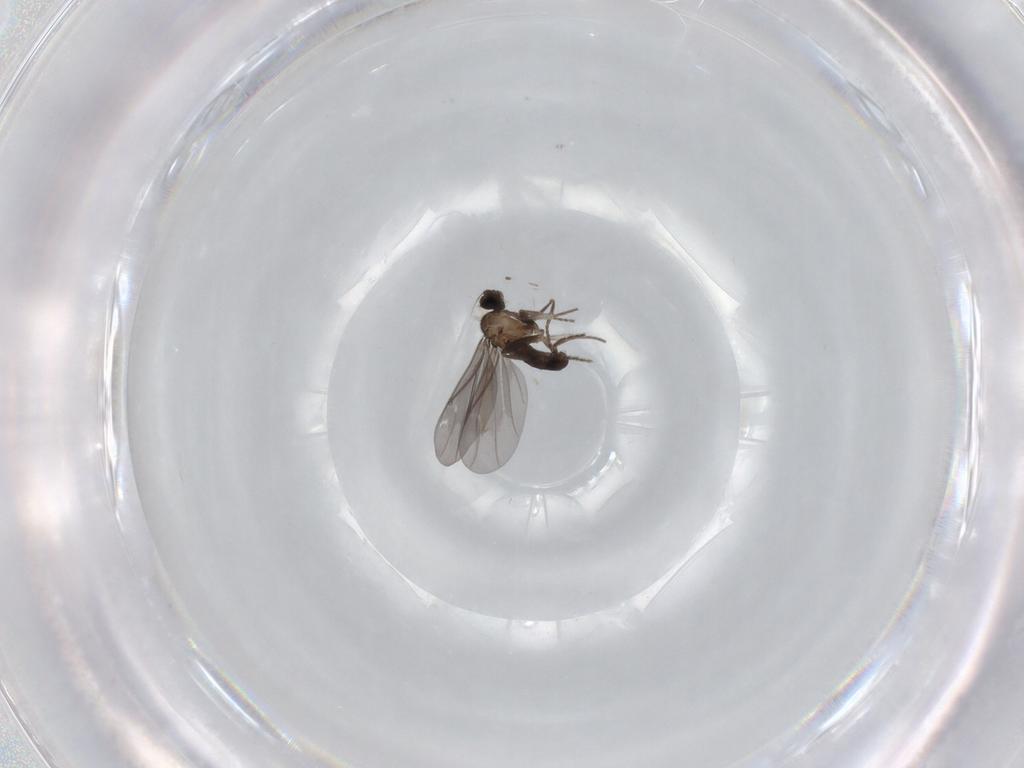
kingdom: Animalia
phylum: Arthropoda
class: Insecta
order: Diptera
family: Phoridae
